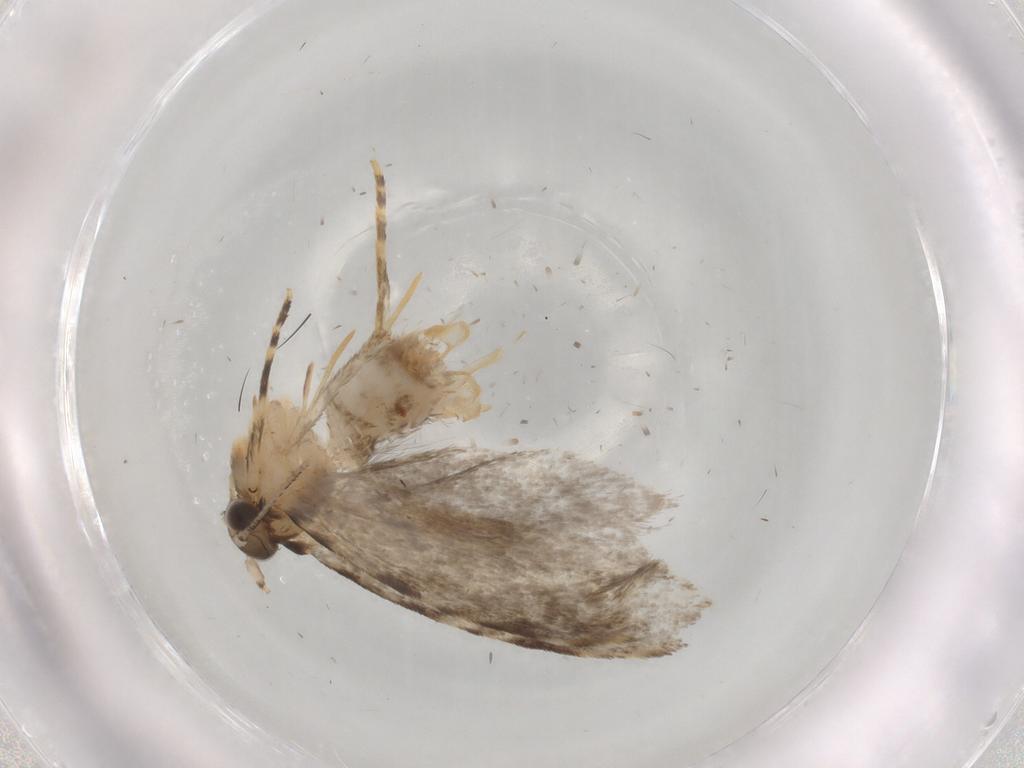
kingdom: Animalia
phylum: Arthropoda
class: Insecta
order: Lepidoptera
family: Tineidae
